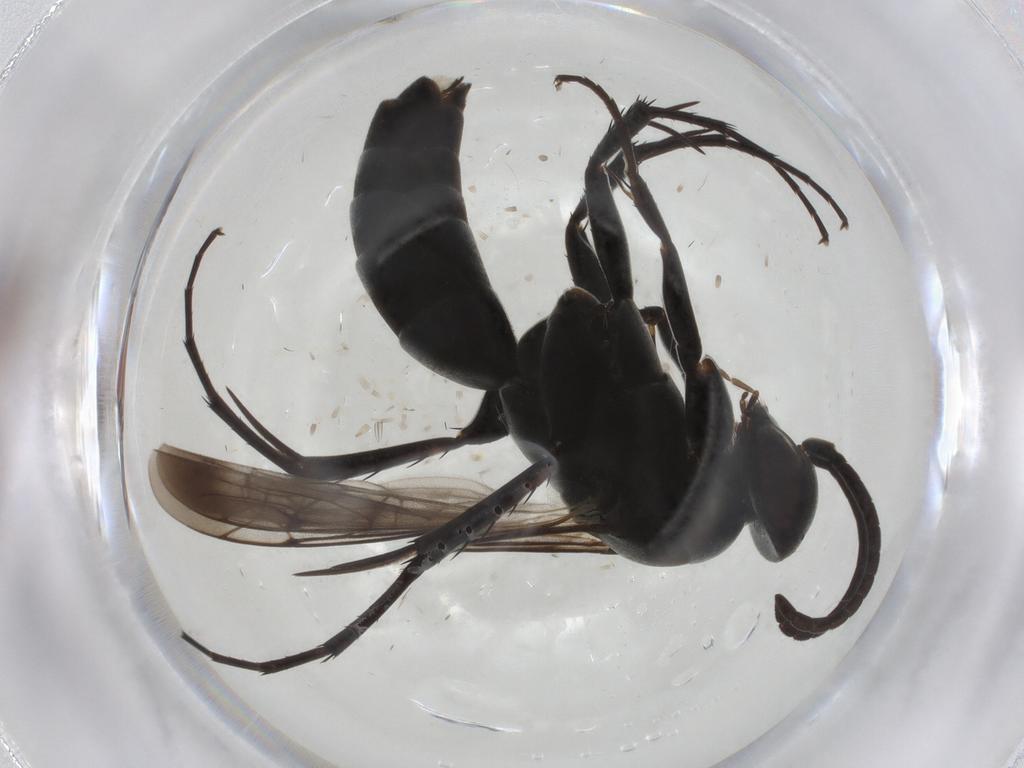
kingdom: Animalia
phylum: Arthropoda
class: Insecta
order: Hymenoptera
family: Pompilidae
